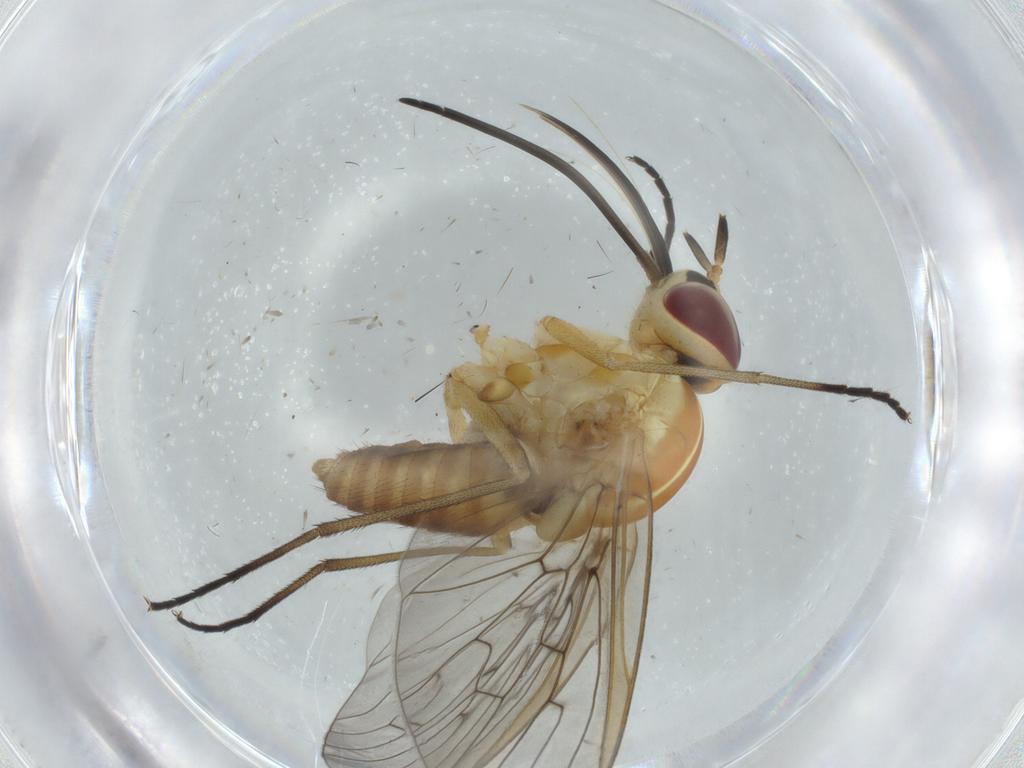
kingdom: Animalia
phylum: Arthropoda
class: Insecta
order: Diptera
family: Bombyliidae
